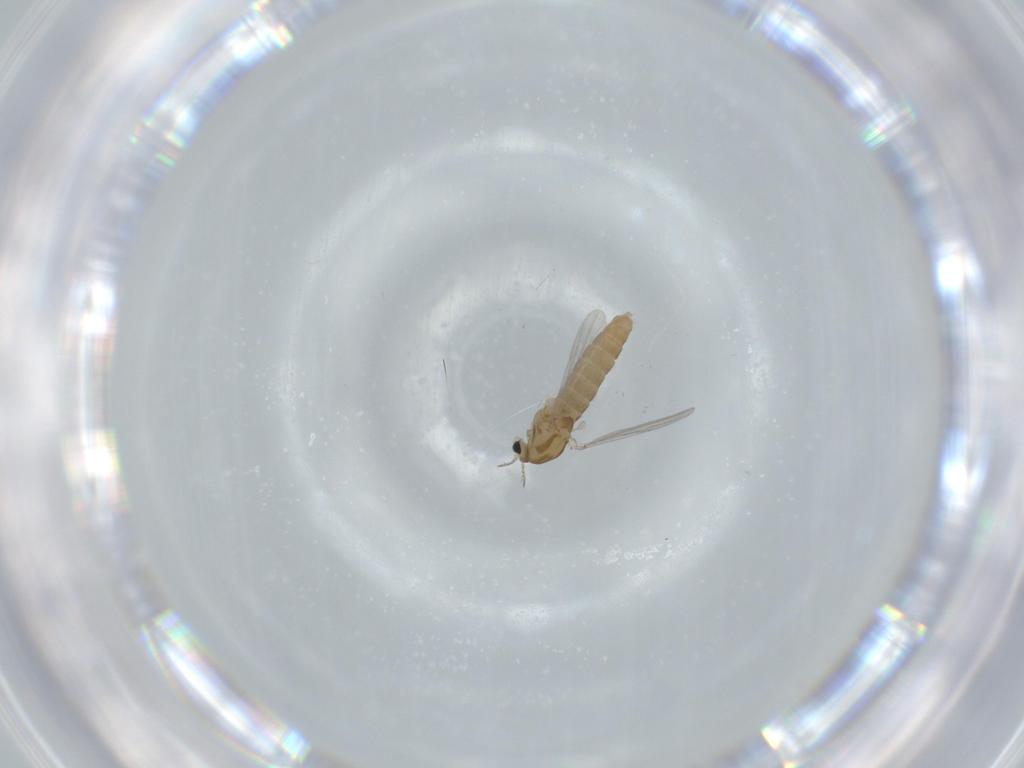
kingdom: Animalia
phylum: Arthropoda
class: Insecta
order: Diptera
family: Chironomidae
